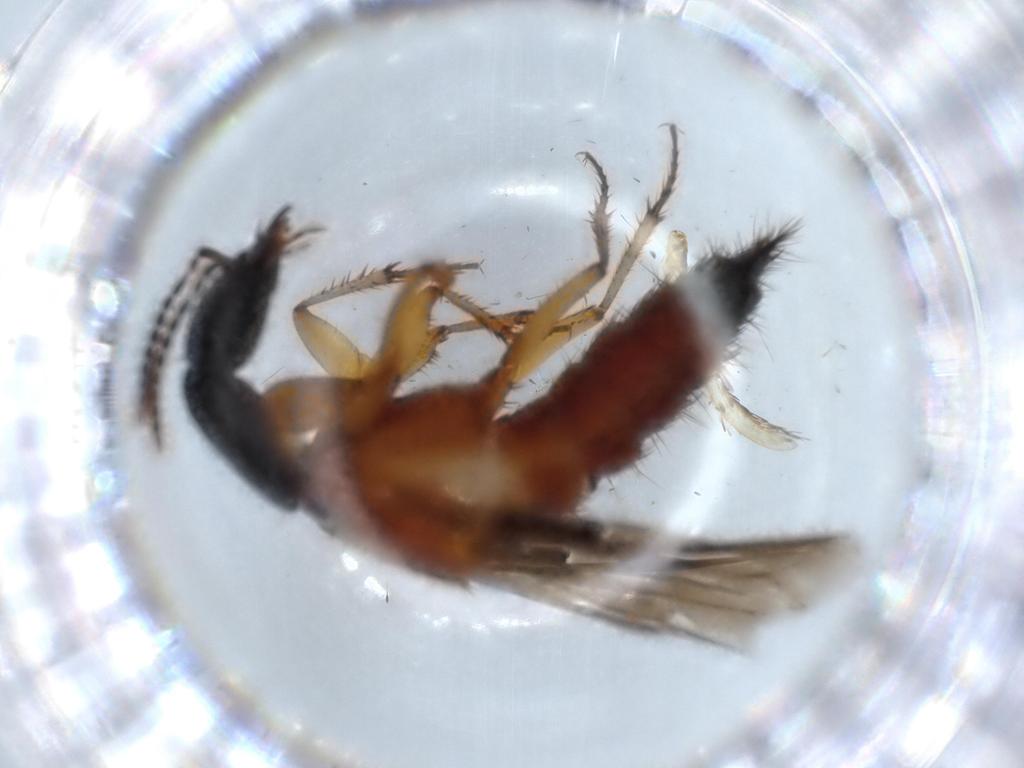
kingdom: Animalia
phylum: Arthropoda
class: Insecta
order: Coleoptera
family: Staphylinidae
